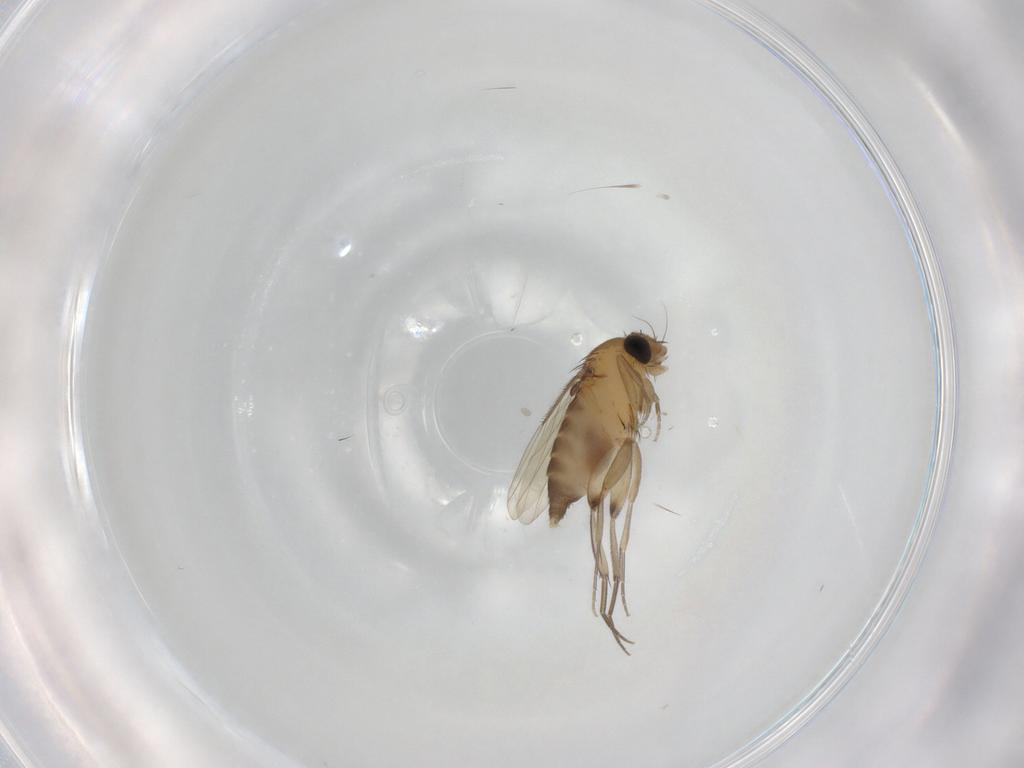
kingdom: Animalia
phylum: Arthropoda
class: Insecta
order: Diptera
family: Phoridae
